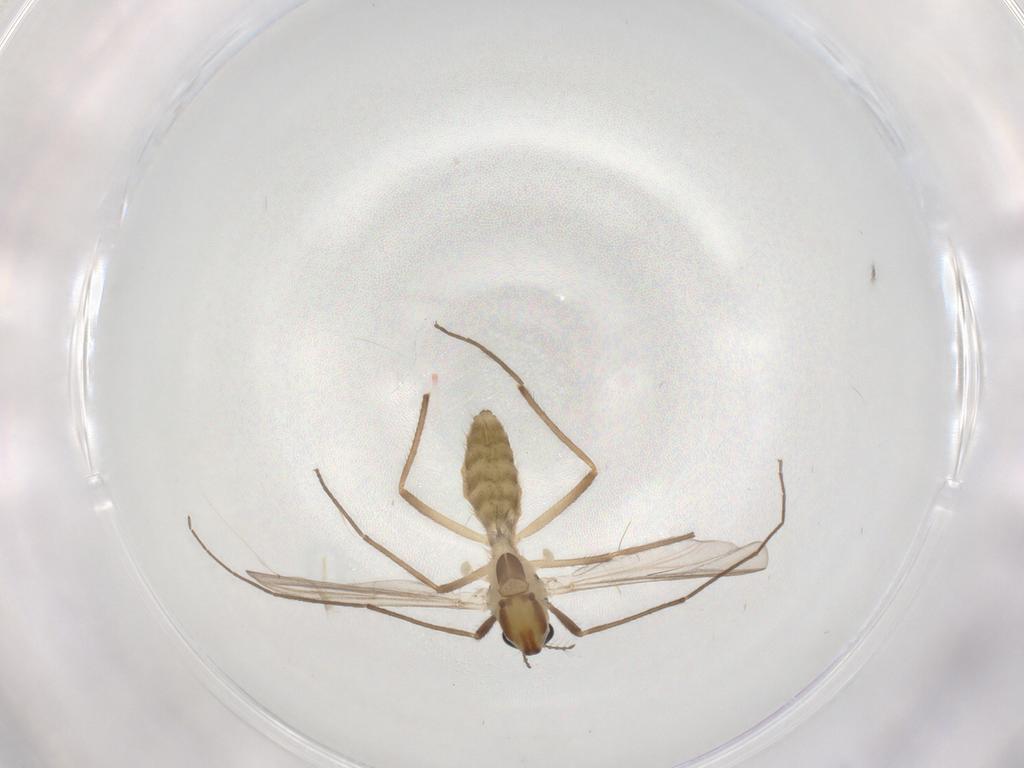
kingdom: Animalia
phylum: Arthropoda
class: Insecta
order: Diptera
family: Chironomidae
